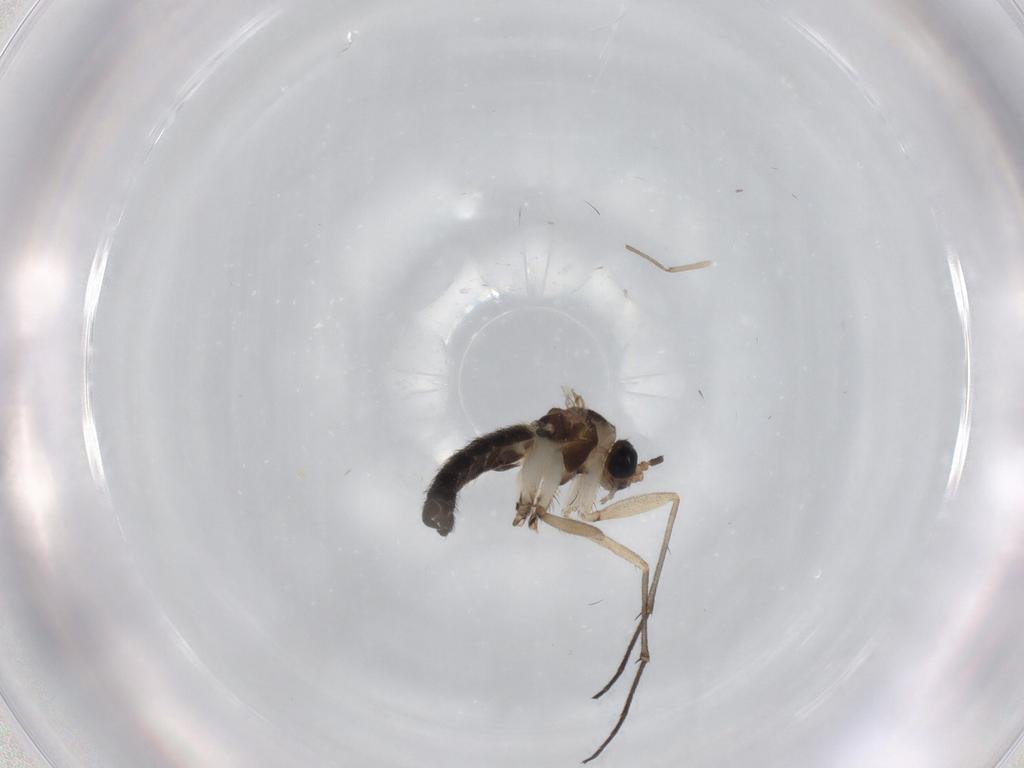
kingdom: Animalia
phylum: Arthropoda
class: Insecta
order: Diptera
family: Sciaridae
